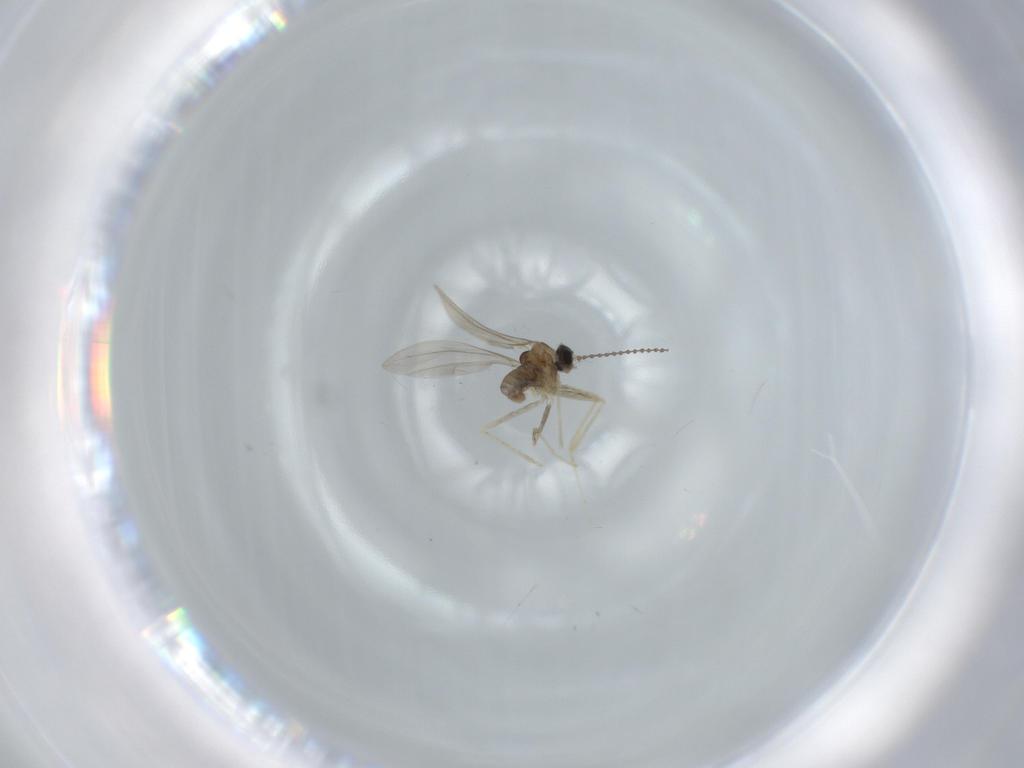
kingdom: Animalia
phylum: Arthropoda
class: Insecta
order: Diptera
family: Cecidomyiidae
